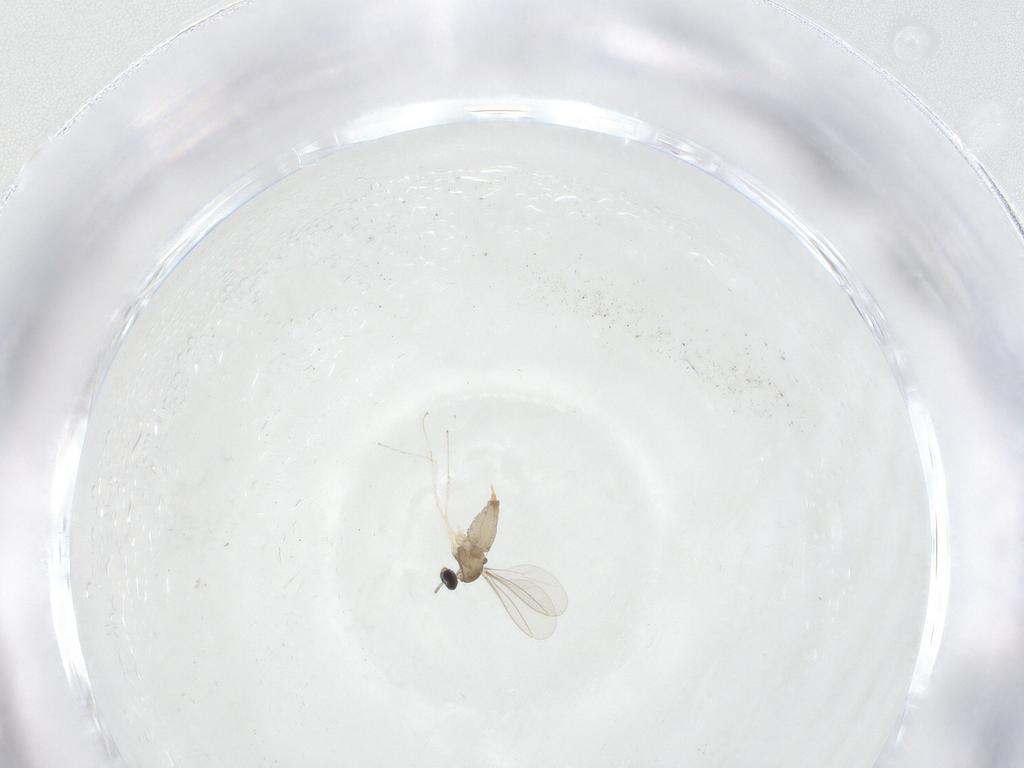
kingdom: Animalia
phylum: Arthropoda
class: Insecta
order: Diptera
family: Cecidomyiidae
